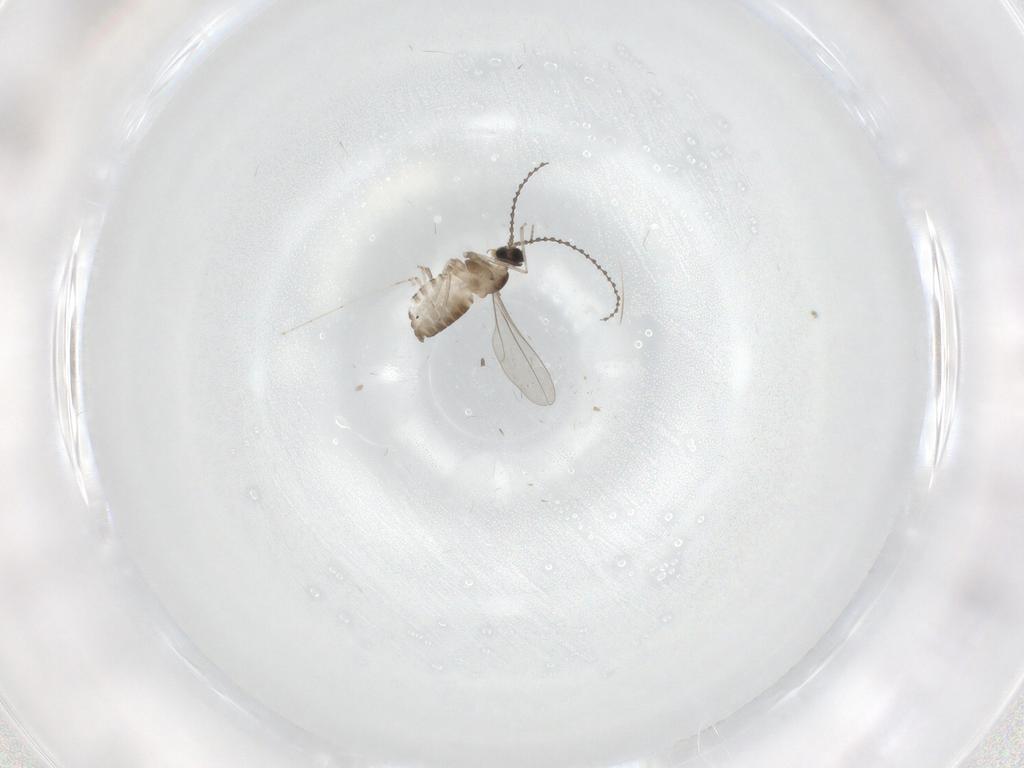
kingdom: Animalia
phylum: Arthropoda
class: Insecta
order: Diptera
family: Cecidomyiidae
